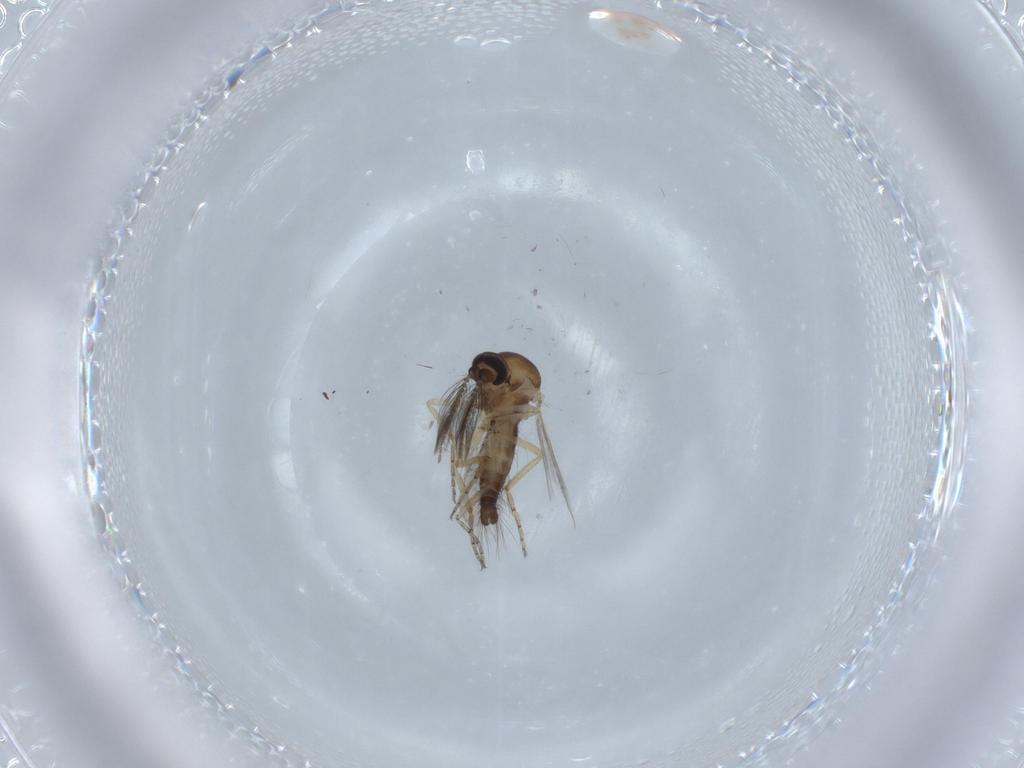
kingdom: Animalia
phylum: Arthropoda
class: Insecta
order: Diptera
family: Ceratopogonidae
